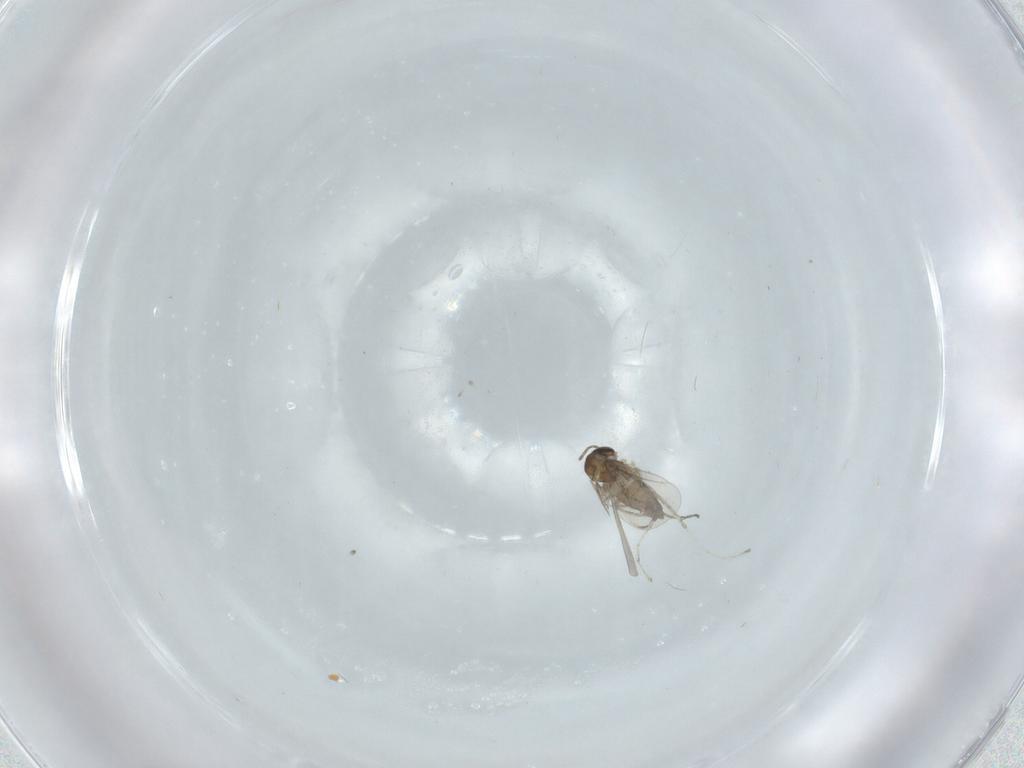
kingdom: Animalia
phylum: Arthropoda
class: Insecta
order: Diptera
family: Cecidomyiidae
